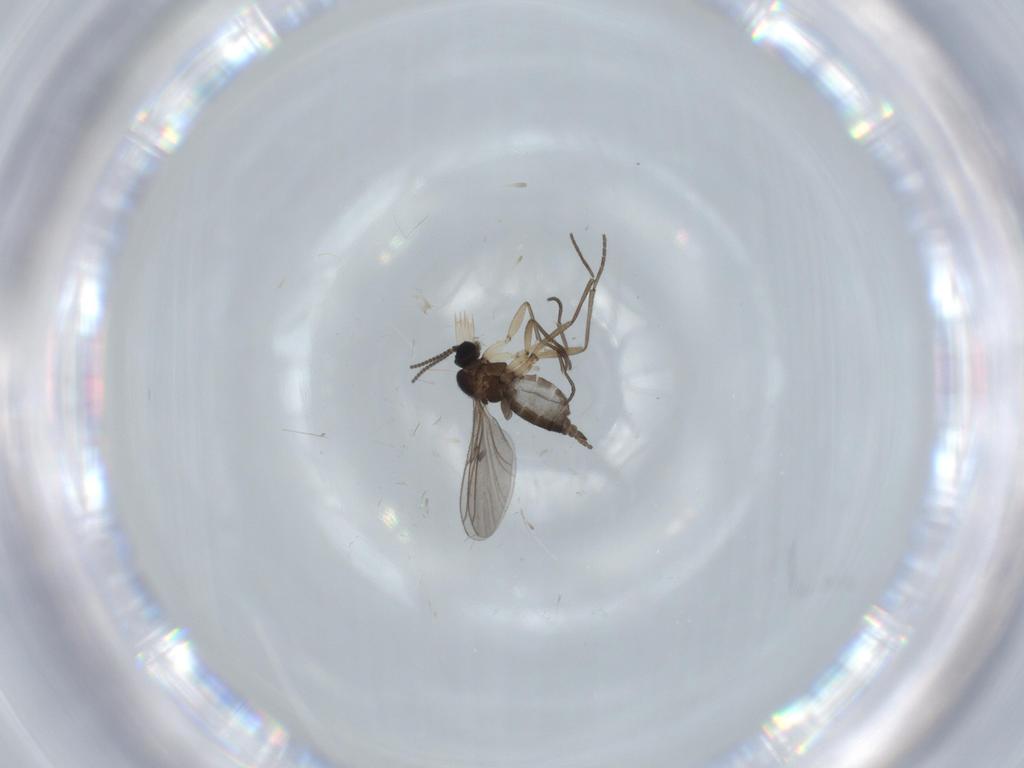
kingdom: Animalia
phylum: Arthropoda
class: Insecta
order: Diptera
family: Sciaridae
